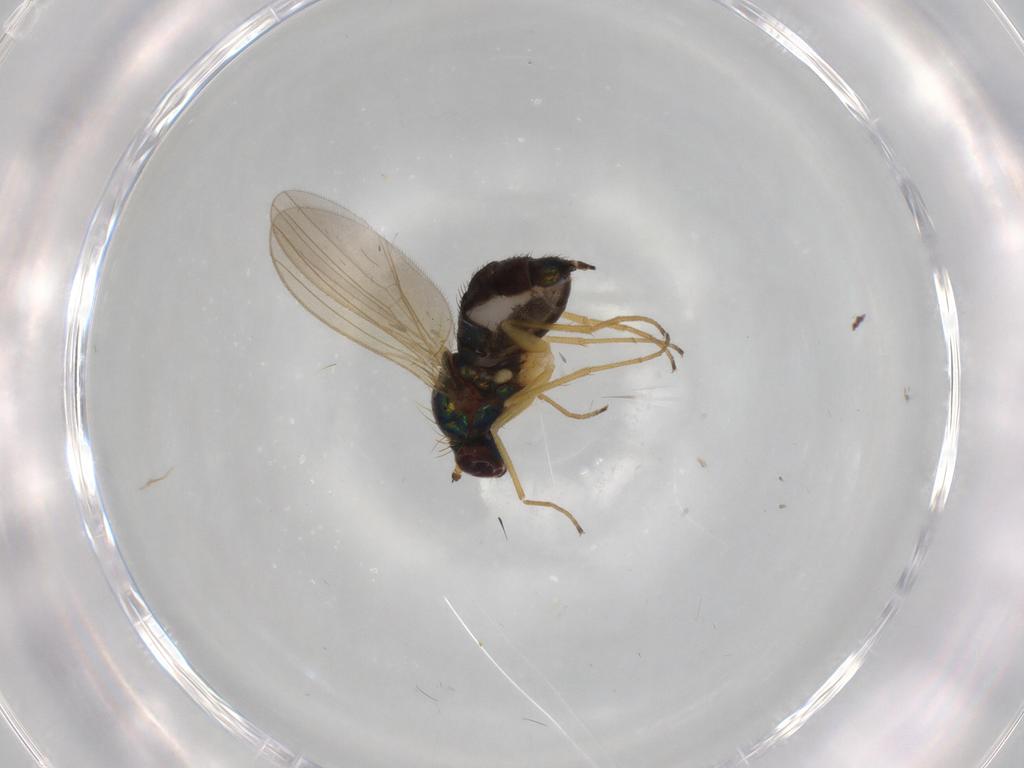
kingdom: Animalia
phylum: Arthropoda
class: Insecta
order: Diptera
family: Dolichopodidae
